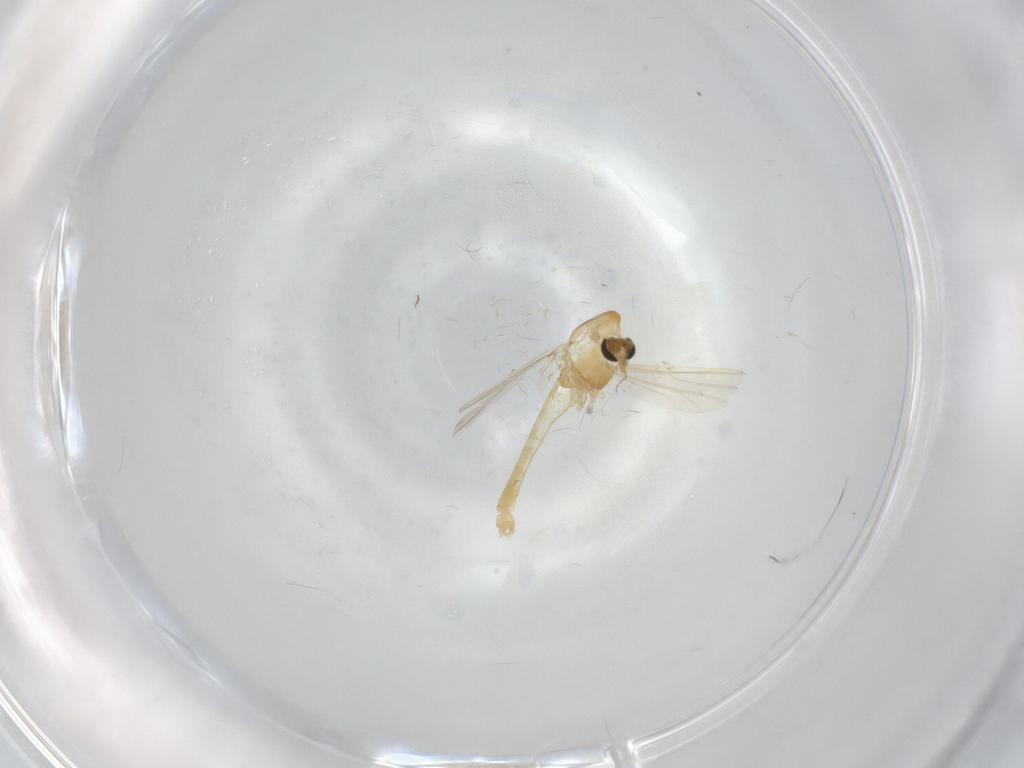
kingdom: Animalia
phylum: Arthropoda
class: Insecta
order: Diptera
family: Chironomidae
